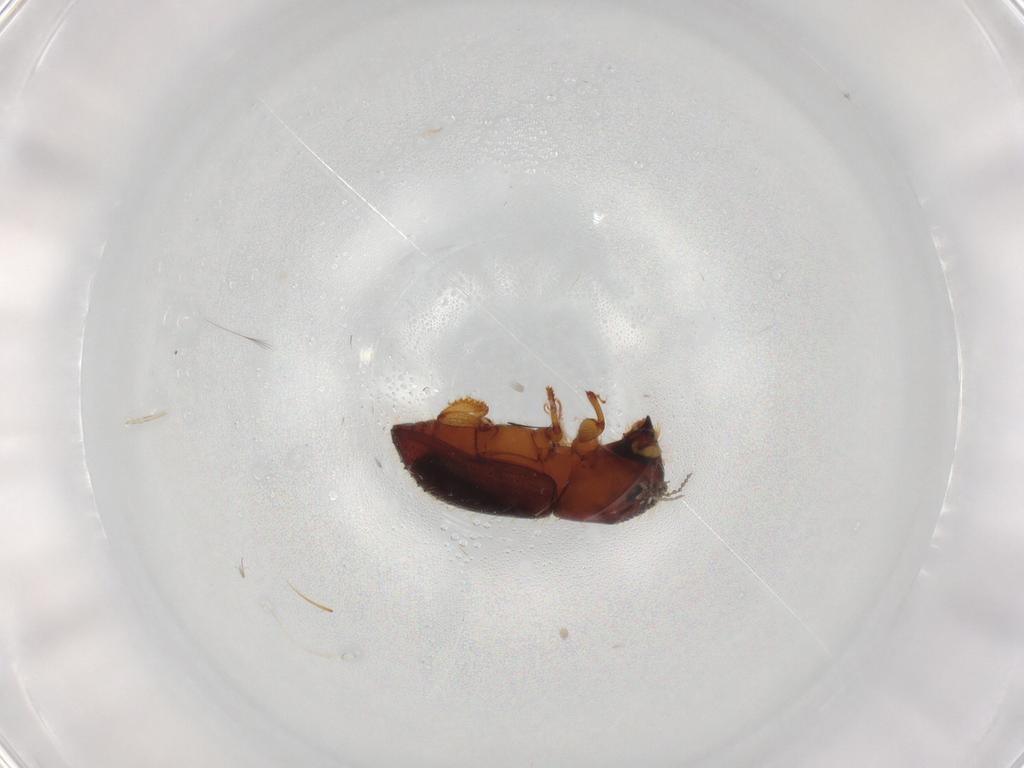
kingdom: Animalia
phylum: Arthropoda
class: Insecta
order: Coleoptera
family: Curculionidae
